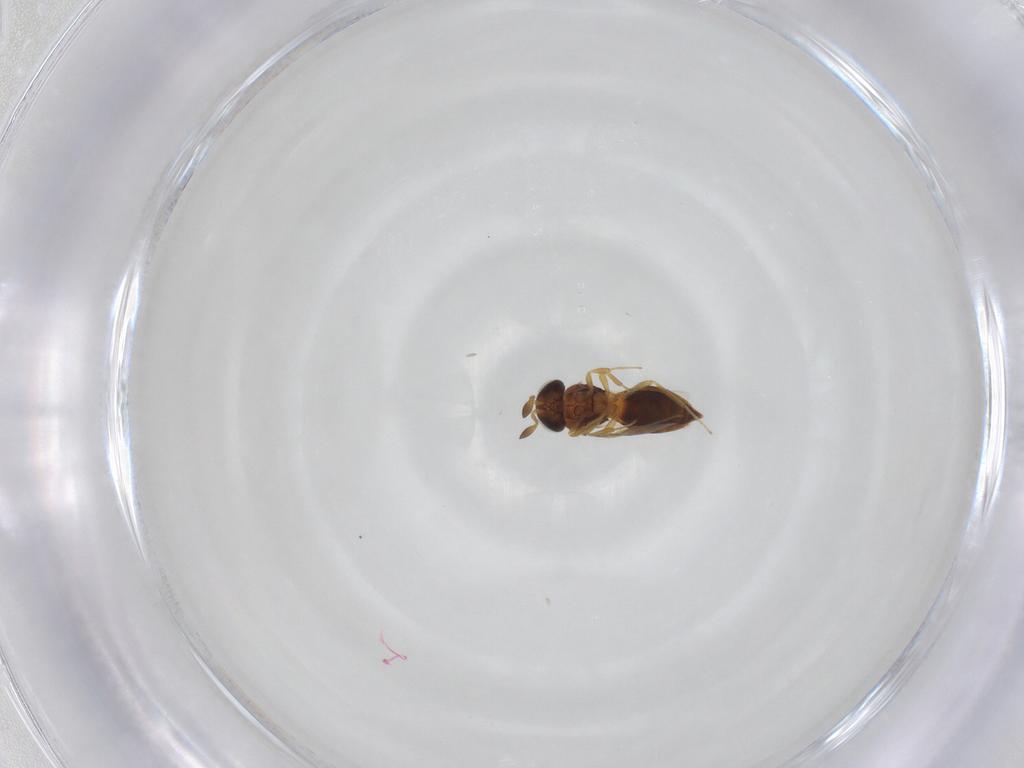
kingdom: Animalia
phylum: Arthropoda
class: Insecta
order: Hymenoptera
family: Scelionidae
